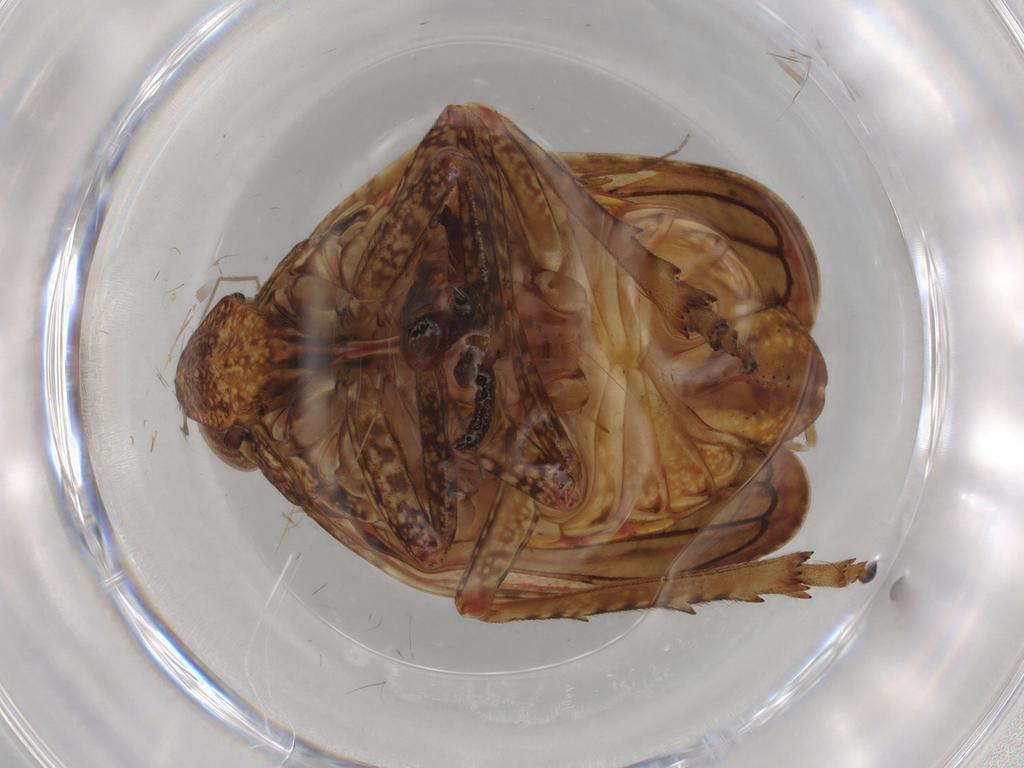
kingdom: Animalia
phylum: Arthropoda
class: Insecta
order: Hemiptera
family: Tropiduchidae
